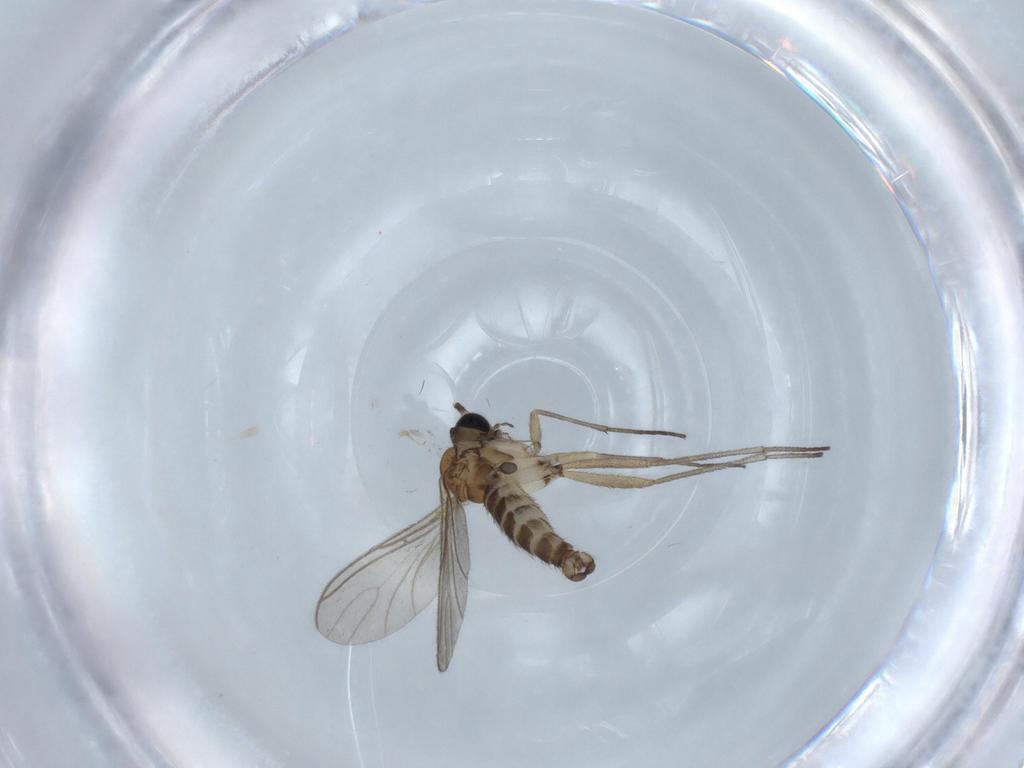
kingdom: Animalia
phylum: Arthropoda
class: Insecta
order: Diptera
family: Sciaridae
